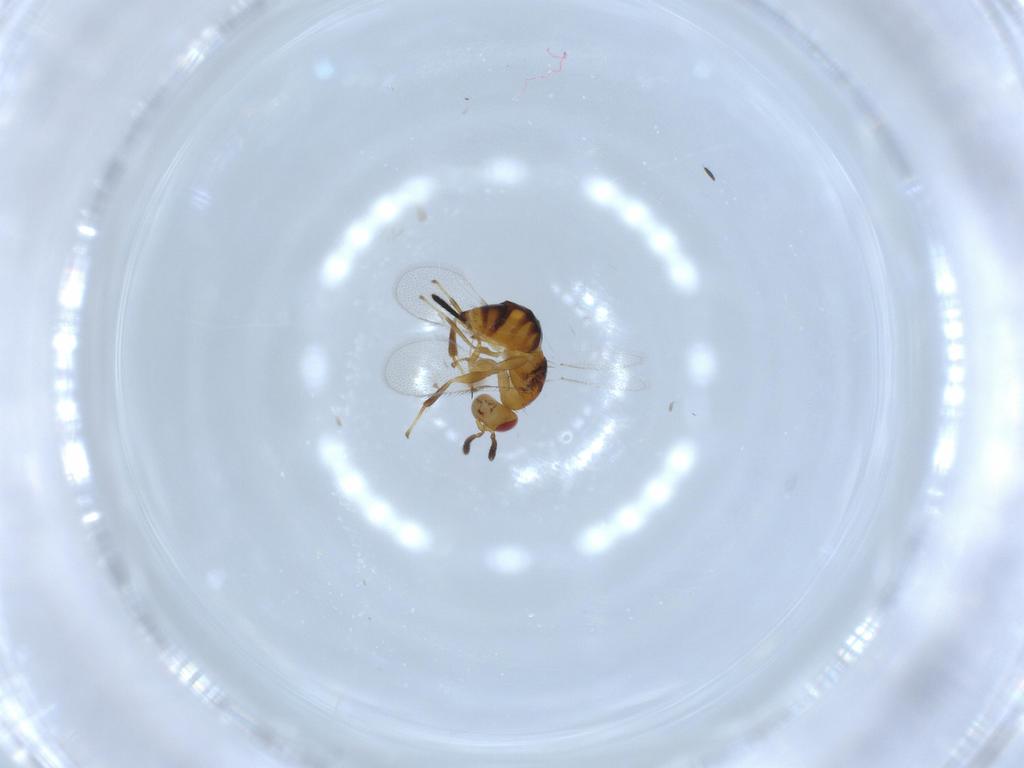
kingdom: Animalia
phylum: Arthropoda
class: Insecta
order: Hymenoptera
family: Torymidae
